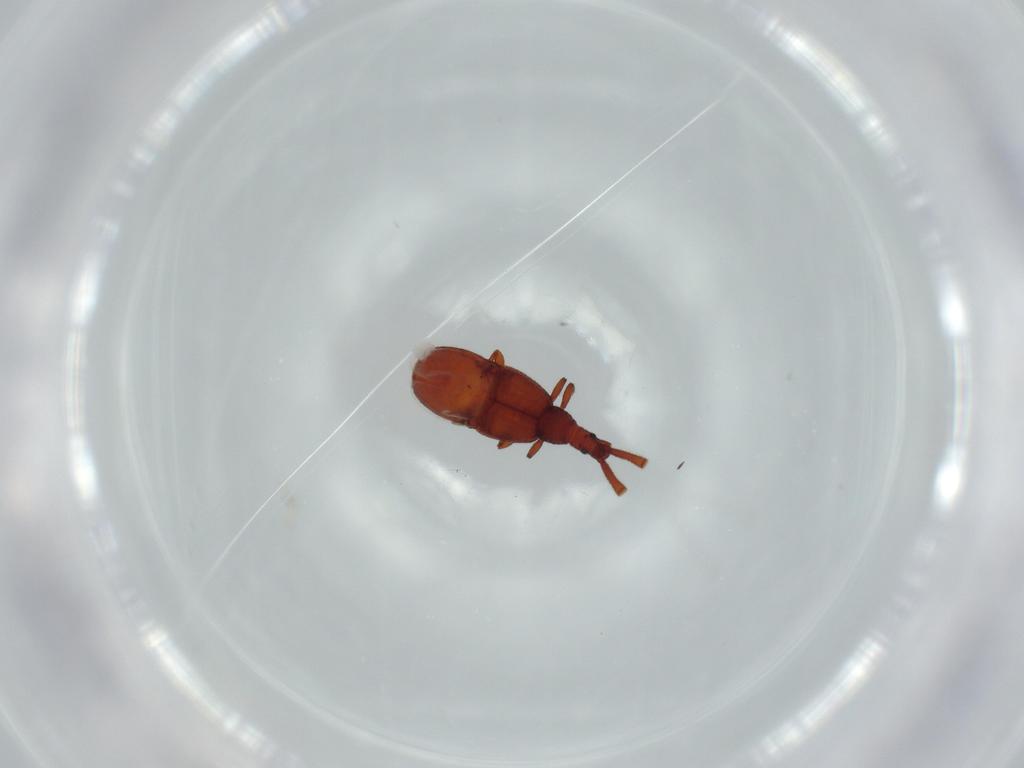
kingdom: Animalia
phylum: Arthropoda
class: Insecta
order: Coleoptera
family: Staphylinidae
